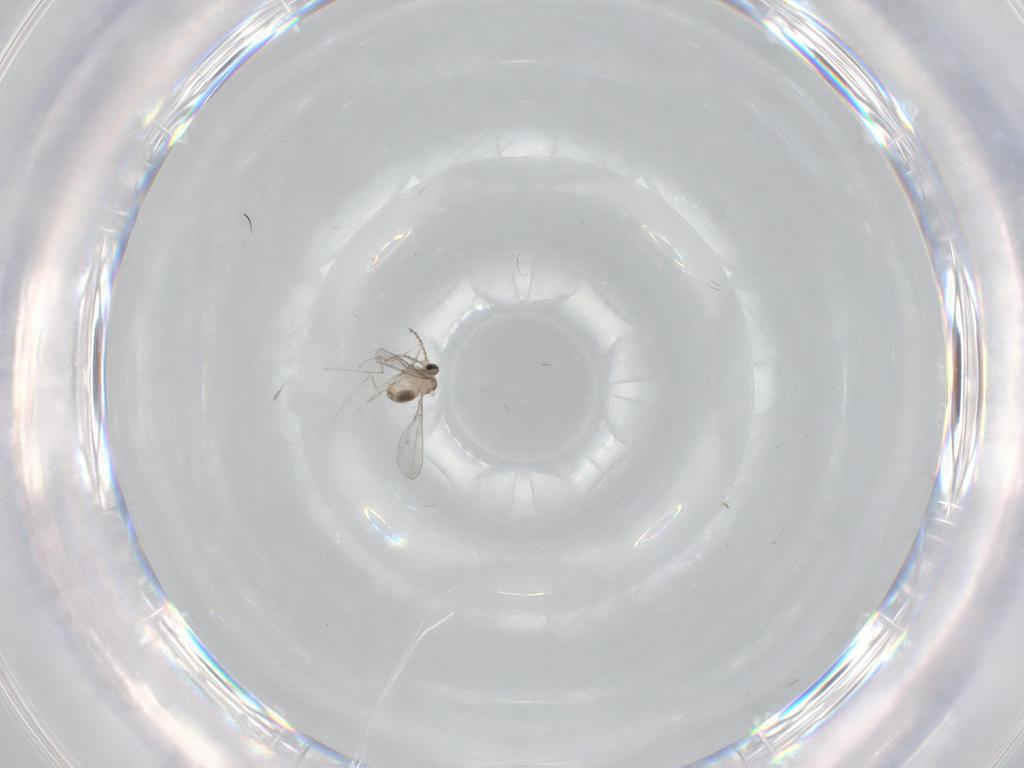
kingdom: Animalia
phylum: Arthropoda
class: Insecta
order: Diptera
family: Cecidomyiidae
